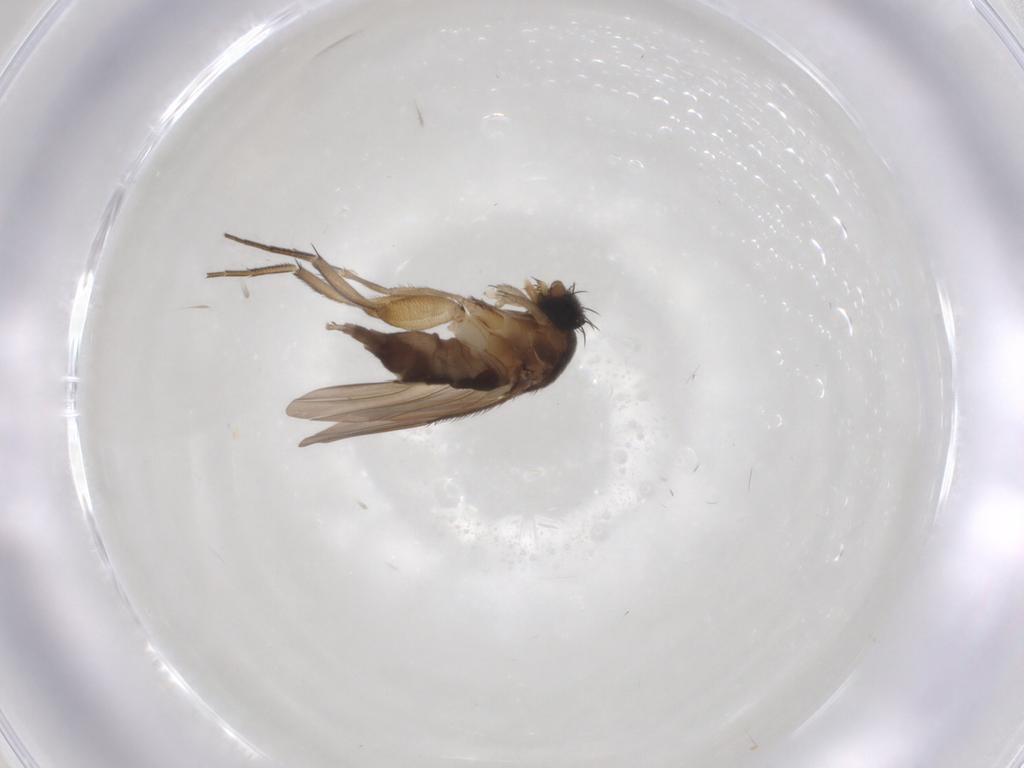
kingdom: Animalia
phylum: Arthropoda
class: Insecta
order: Diptera
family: Phoridae
